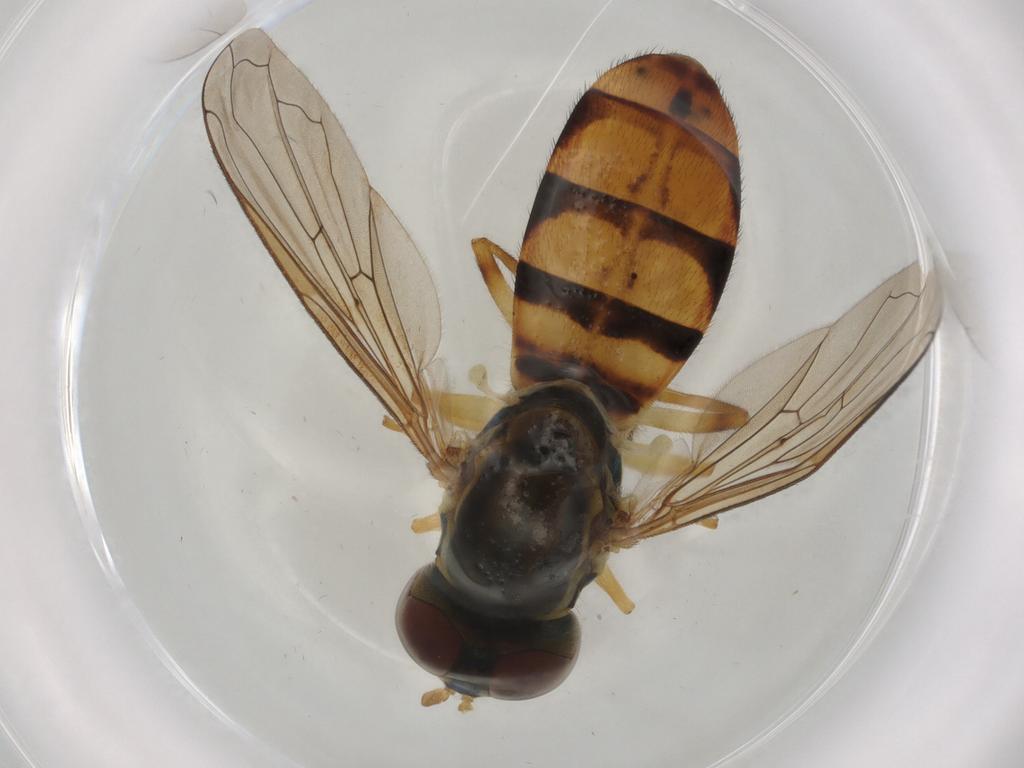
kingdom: Animalia
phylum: Arthropoda
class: Insecta
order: Diptera
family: Syrphidae
